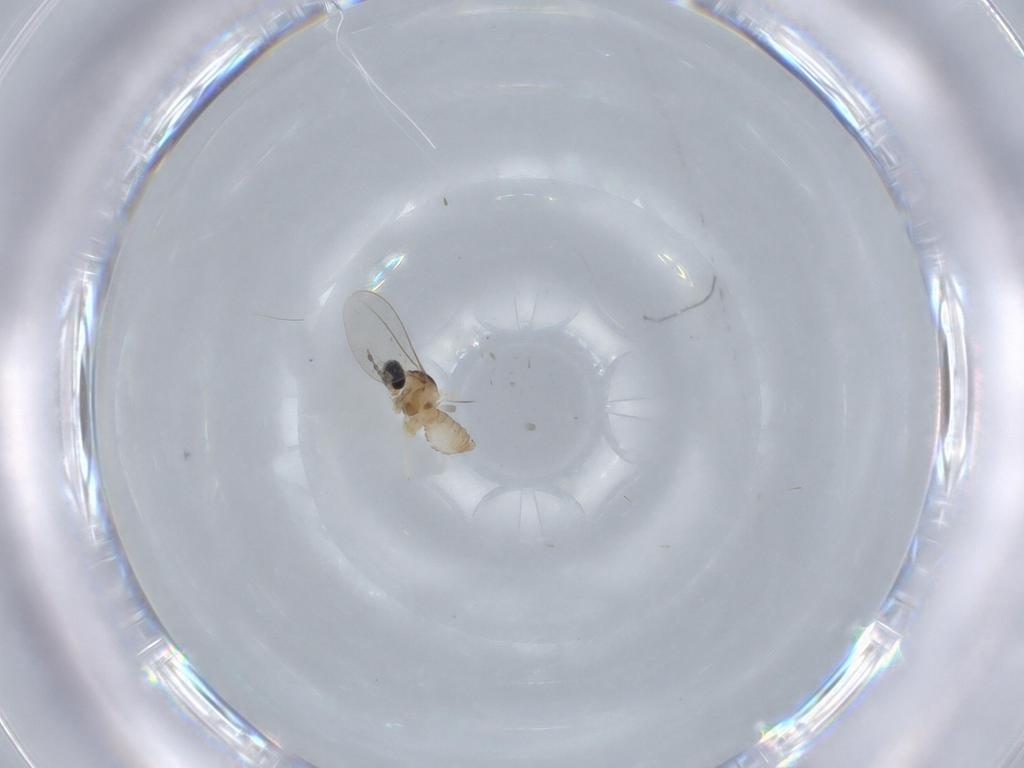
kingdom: Animalia
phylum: Arthropoda
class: Insecta
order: Diptera
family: Cecidomyiidae
